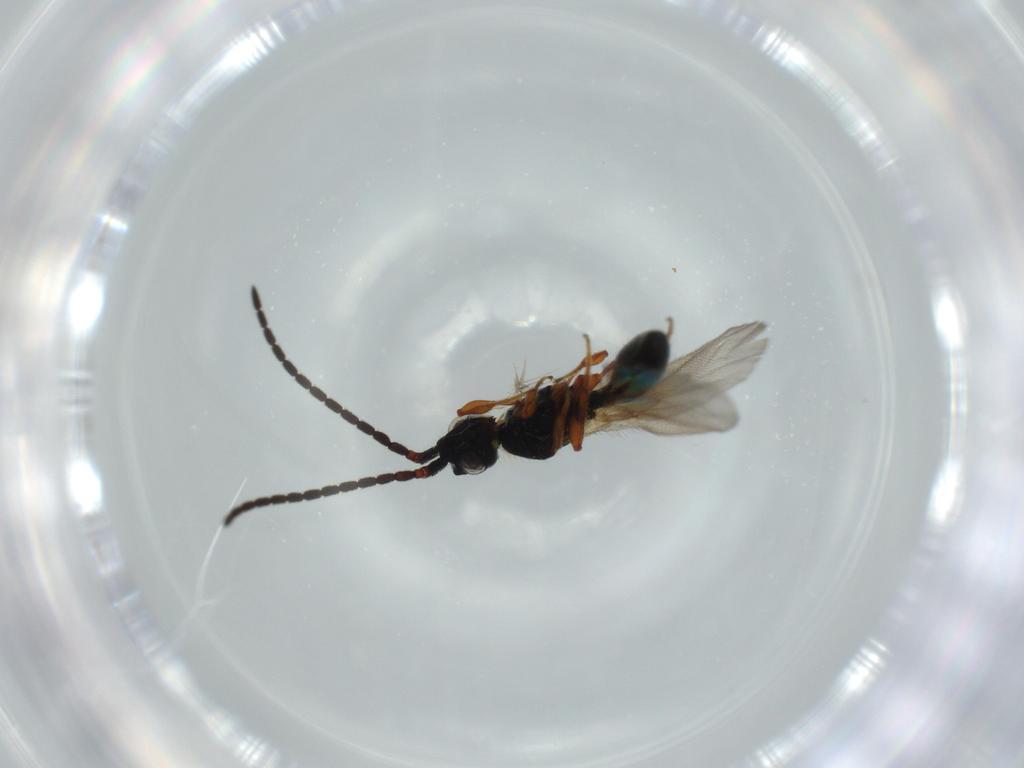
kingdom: Animalia
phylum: Arthropoda
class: Insecta
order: Hymenoptera
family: Diapriidae
